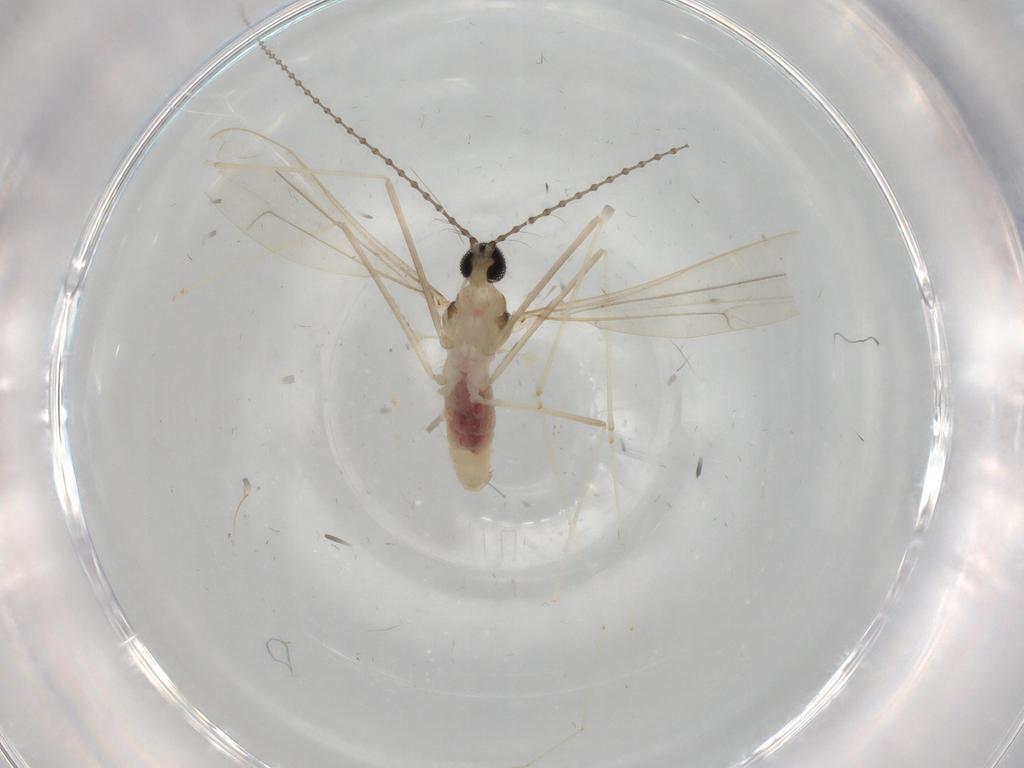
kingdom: Animalia
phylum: Arthropoda
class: Insecta
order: Diptera
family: Cecidomyiidae
